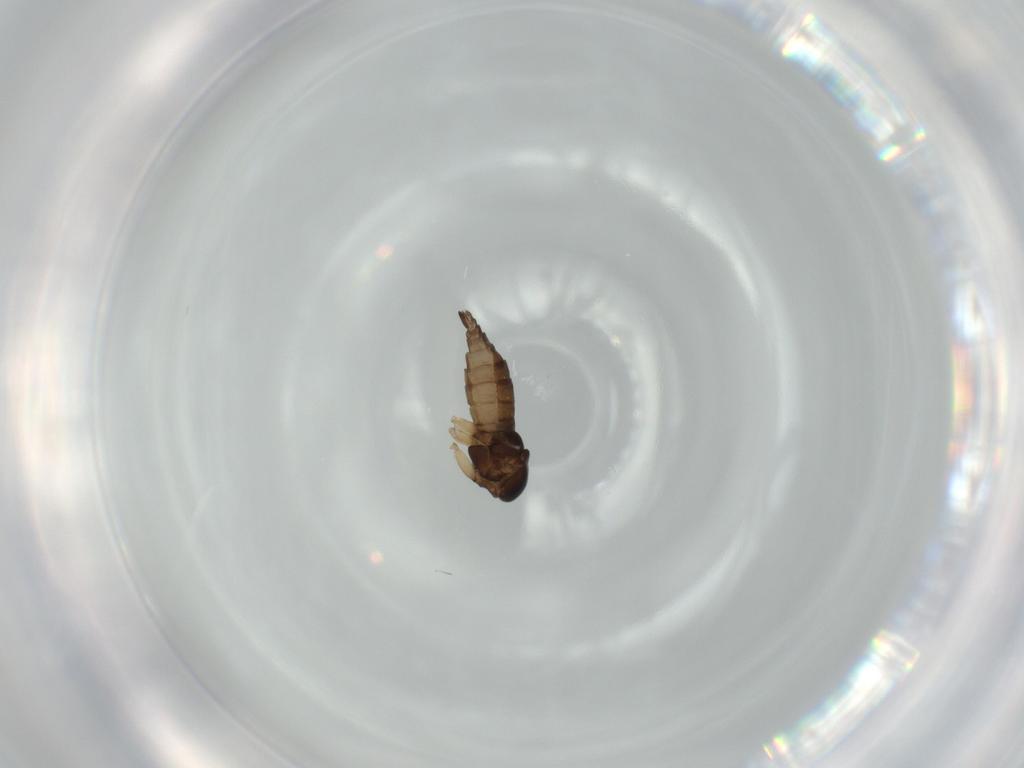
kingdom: Animalia
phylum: Arthropoda
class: Insecta
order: Diptera
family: Sciaridae
